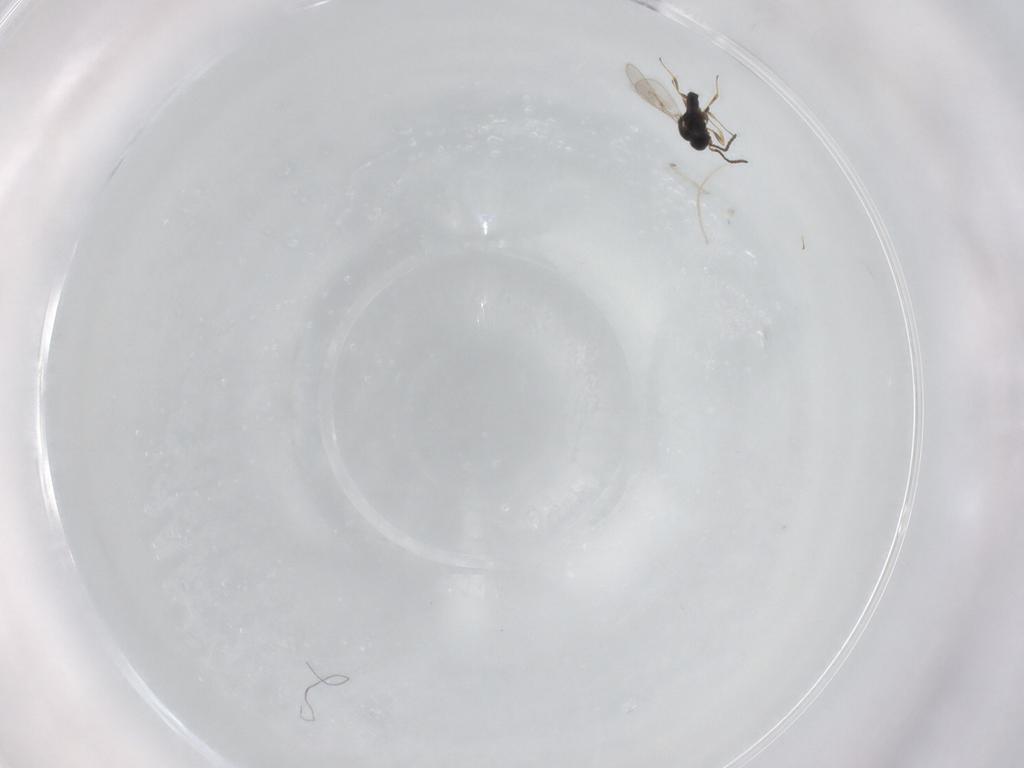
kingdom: Animalia
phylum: Arthropoda
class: Insecta
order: Hymenoptera
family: Scelionidae
